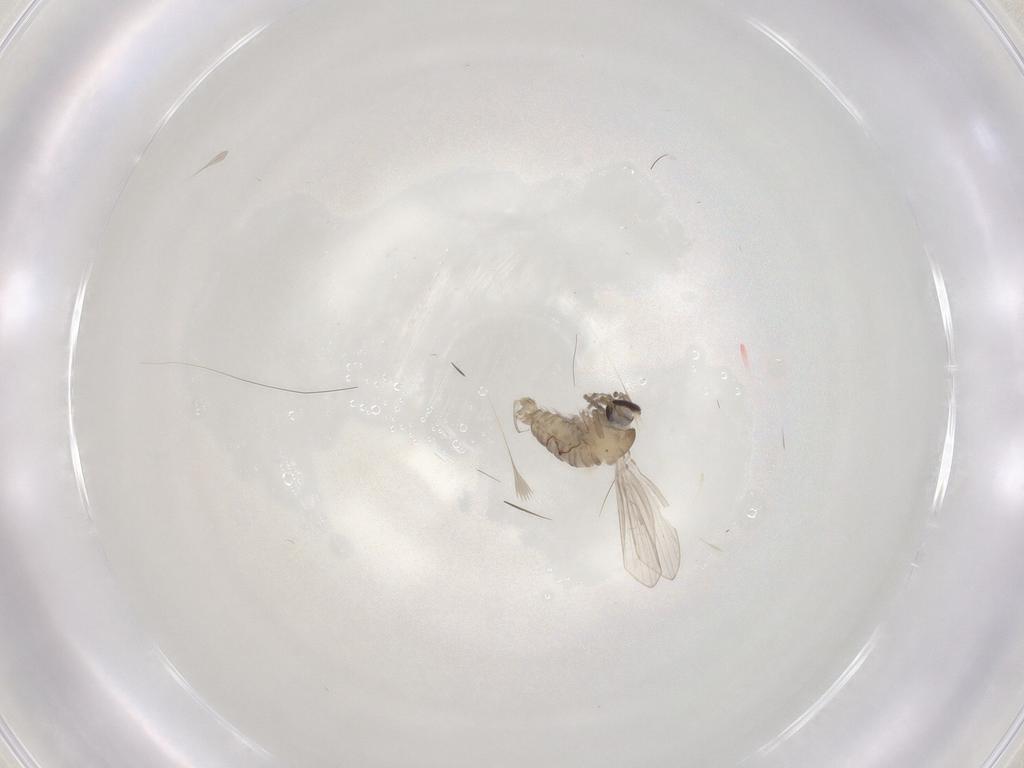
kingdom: Animalia
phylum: Arthropoda
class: Insecta
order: Diptera
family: Psychodidae
